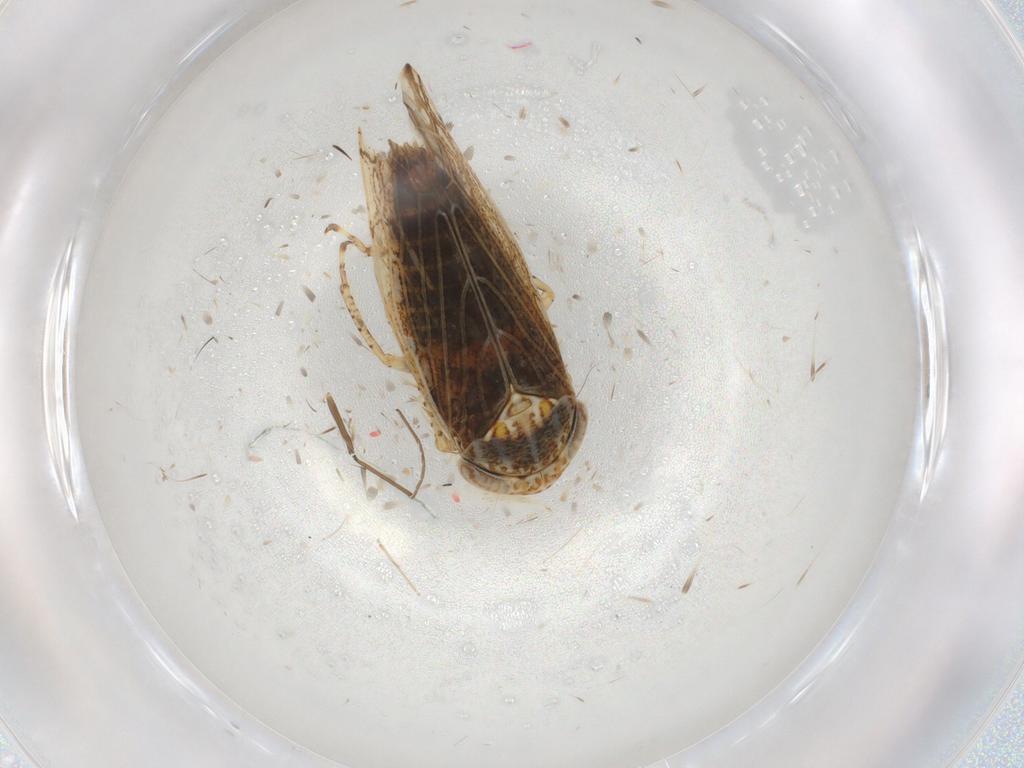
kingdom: Animalia
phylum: Arthropoda
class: Insecta
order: Hemiptera
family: Cicadellidae
